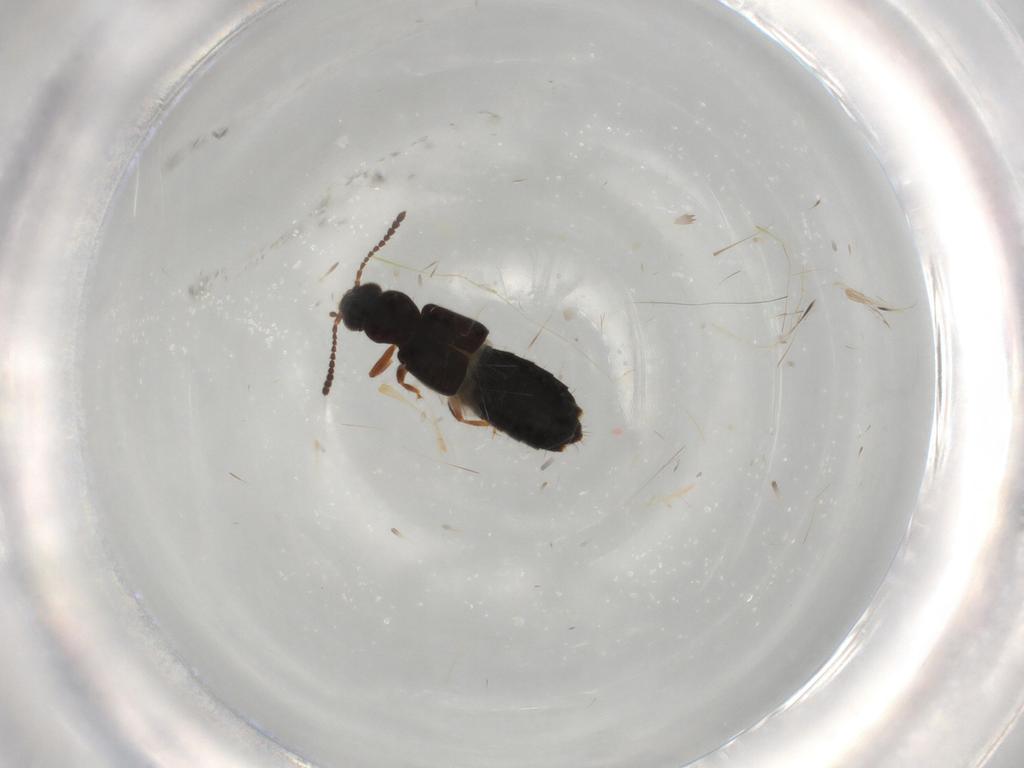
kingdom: Animalia
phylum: Arthropoda
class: Insecta
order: Coleoptera
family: Staphylinidae
